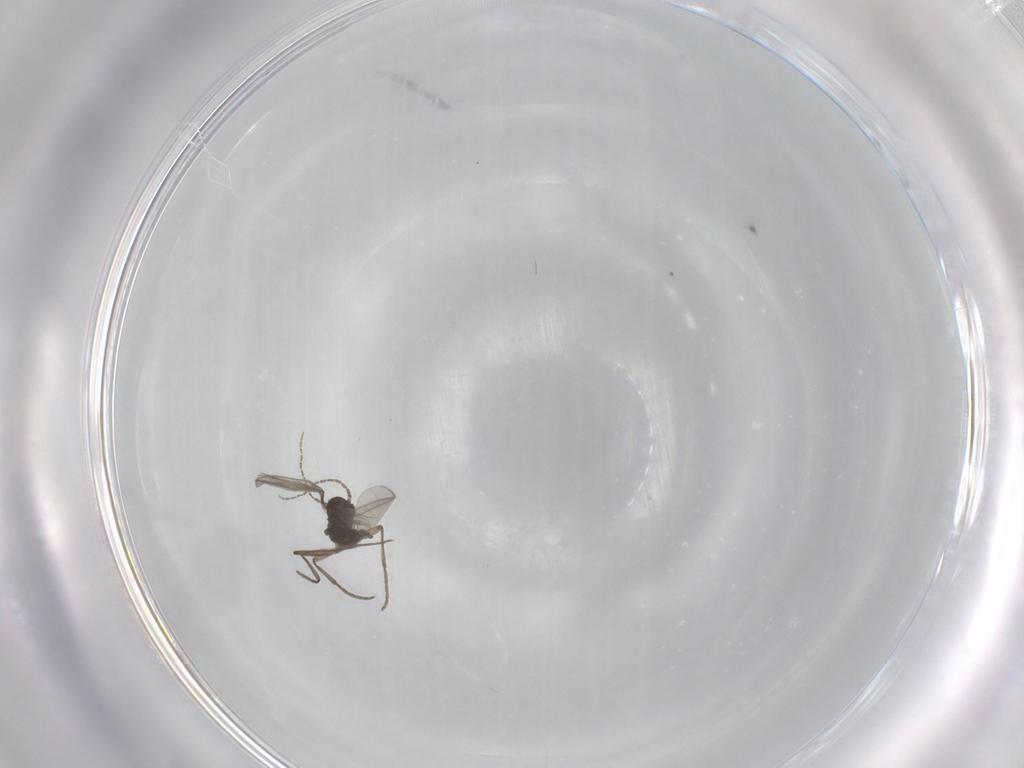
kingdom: Animalia
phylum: Arthropoda
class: Insecta
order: Diptera
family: Sciaridae
